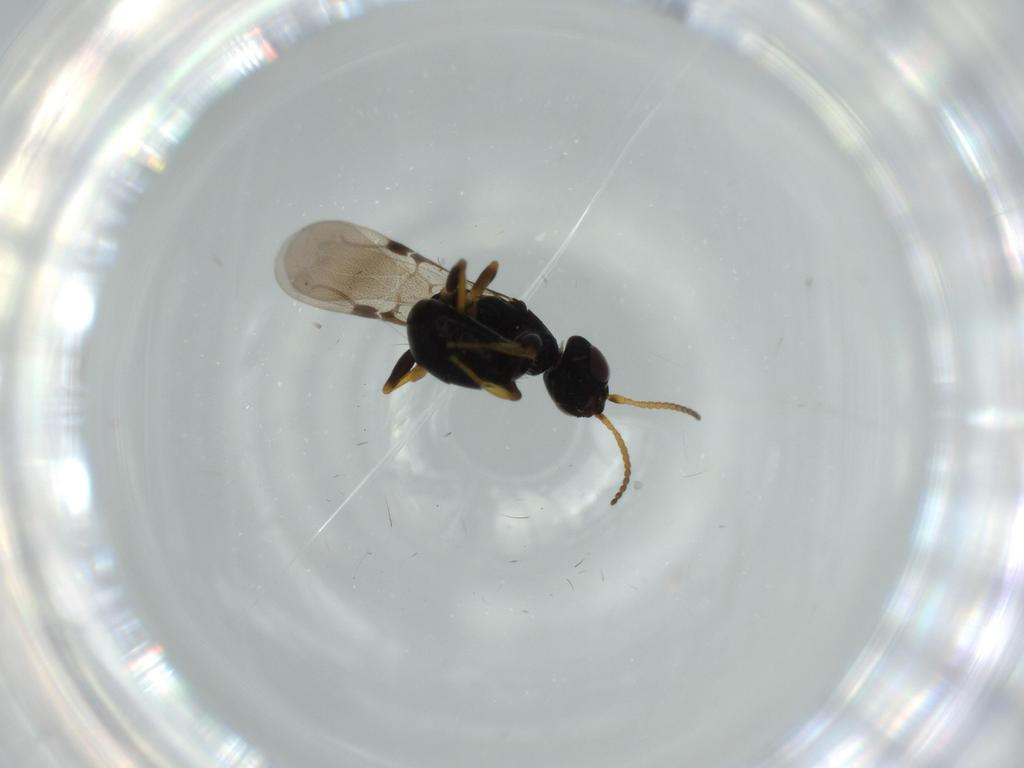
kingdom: Animalia
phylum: Arthropoda
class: Insecta
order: Hymenoptera
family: Bethylidae
